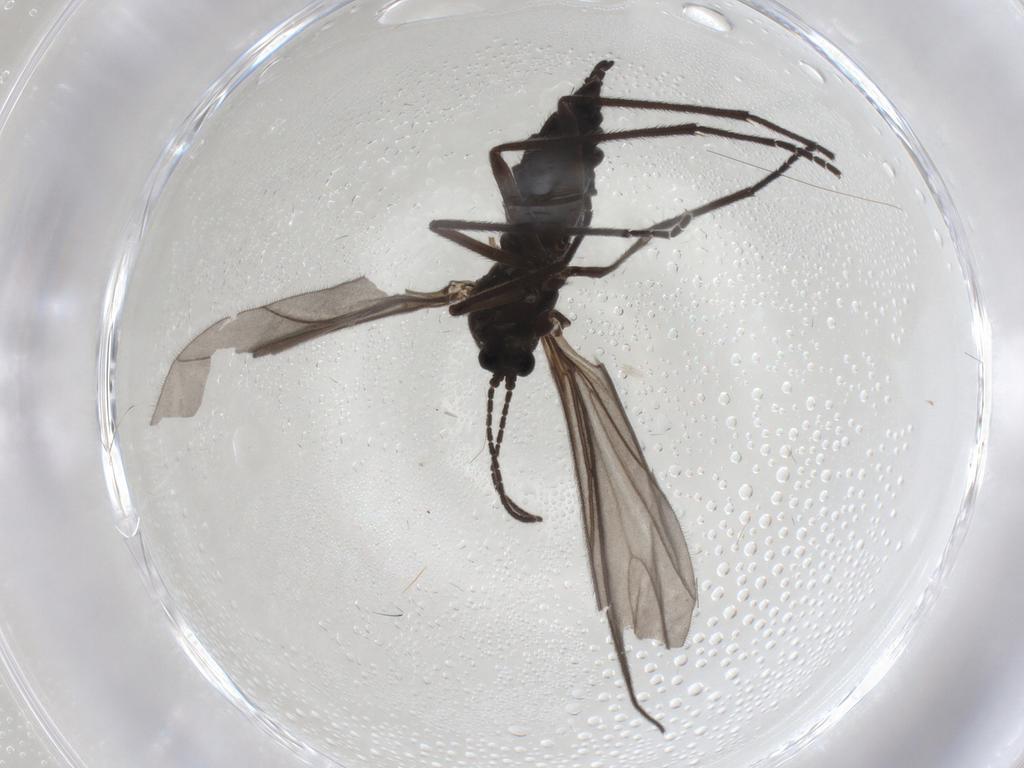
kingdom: Animalia
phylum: Arthropoda
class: Insecta
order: Diptera
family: Sciaridae
